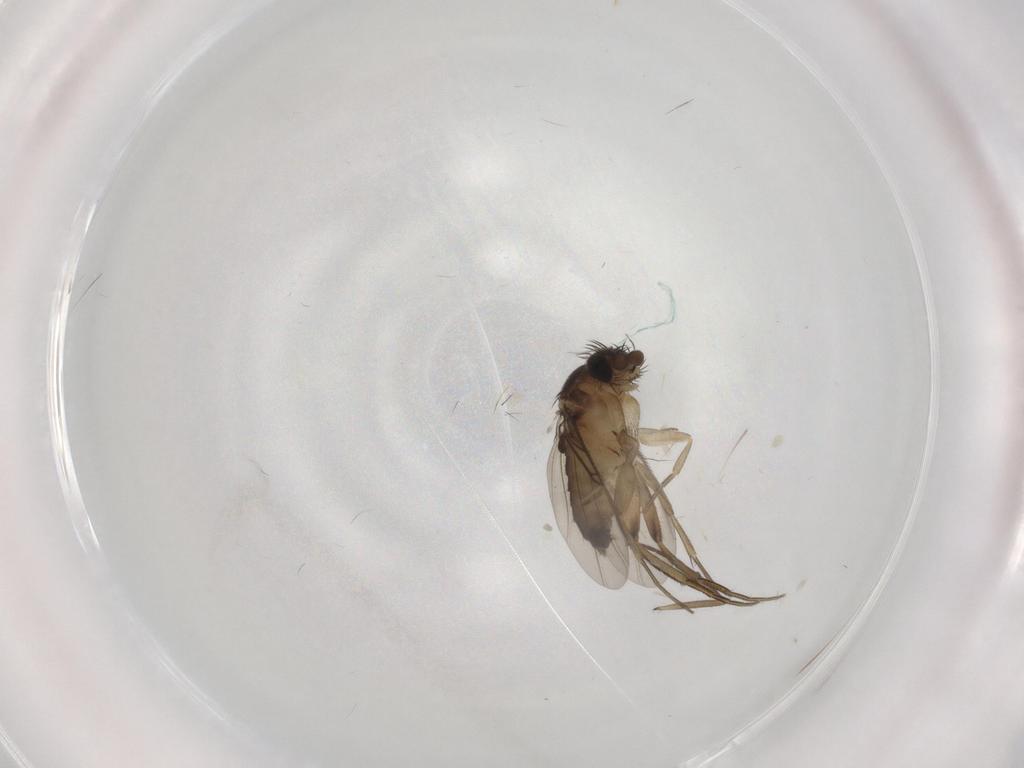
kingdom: Animalia
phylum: Arthropoda
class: Insecta
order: Diptera
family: Phoridae
